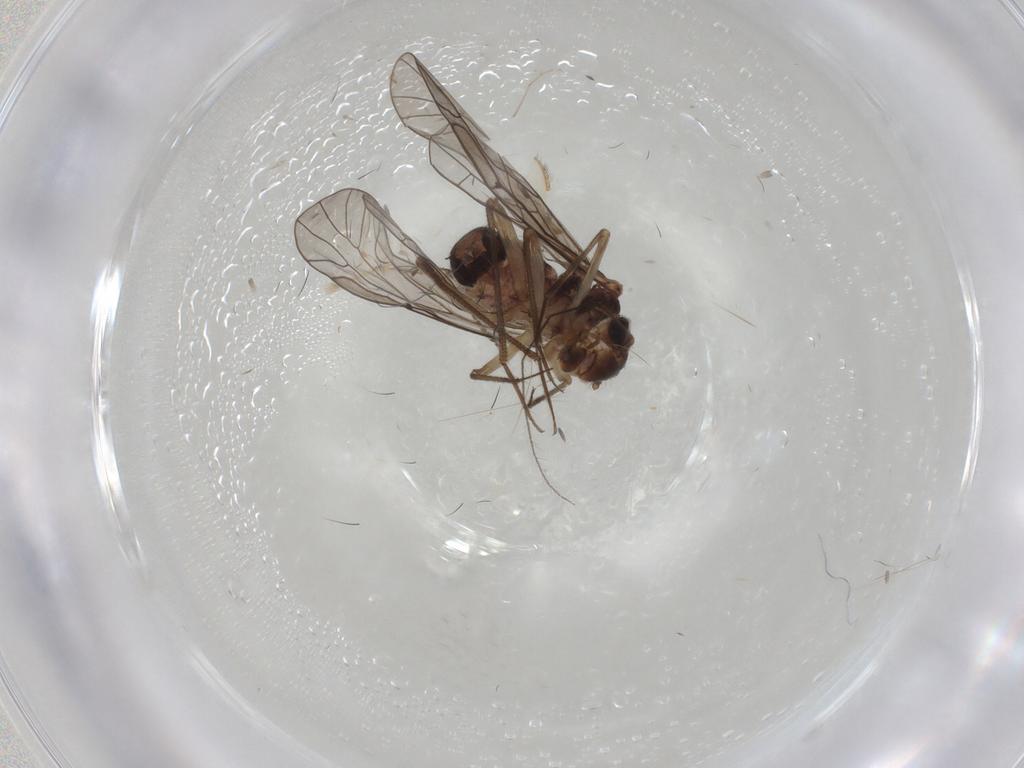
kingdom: Animalia
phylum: Arthropoda
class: Insecta
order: Psocodea
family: Lachesillidae
